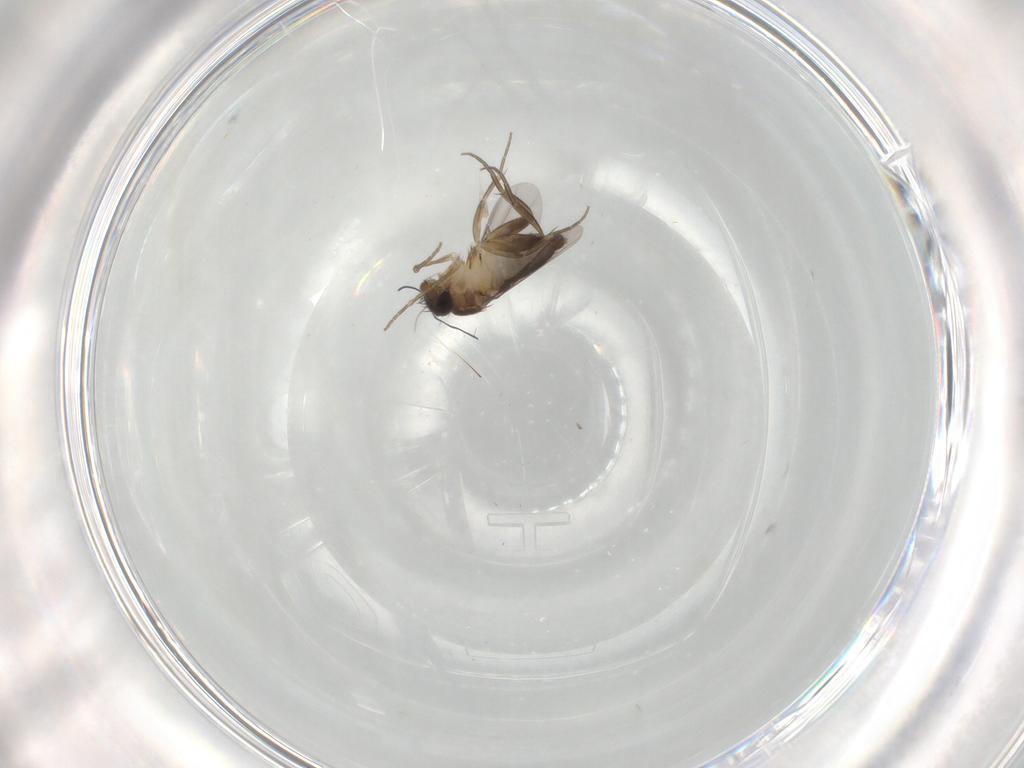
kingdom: Animalia
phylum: Arthropoda
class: Insecta
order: Diptera
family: Phoridae
